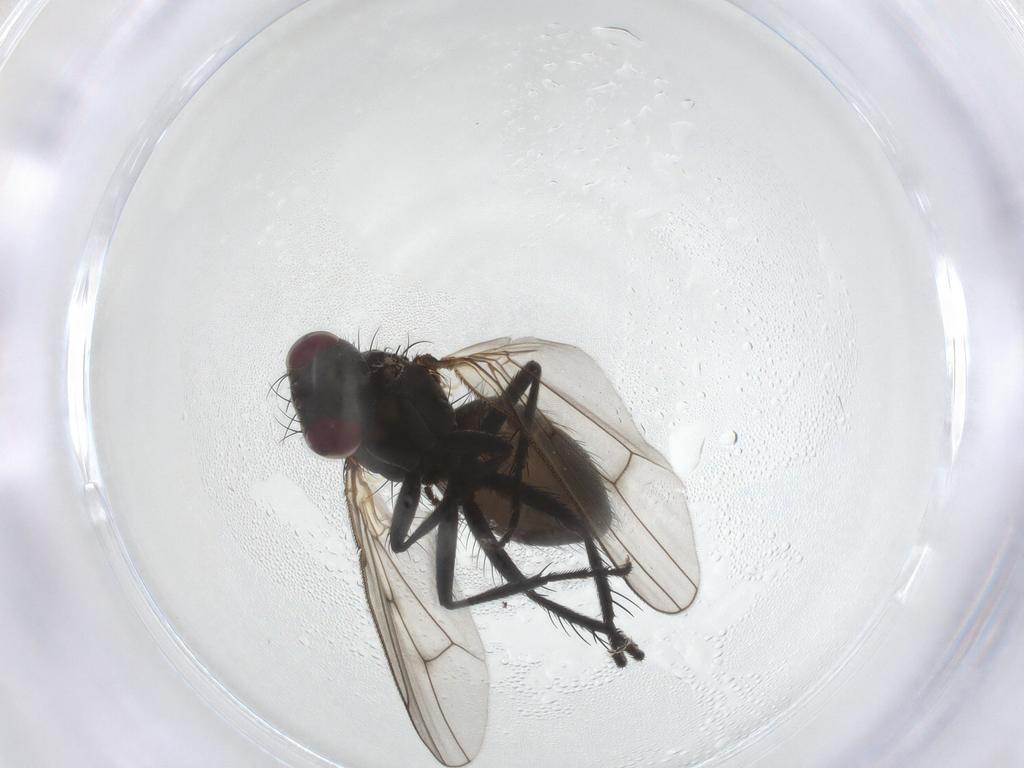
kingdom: Animalia
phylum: Arthropoda
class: Insecta
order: Diptera
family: Muscidae
